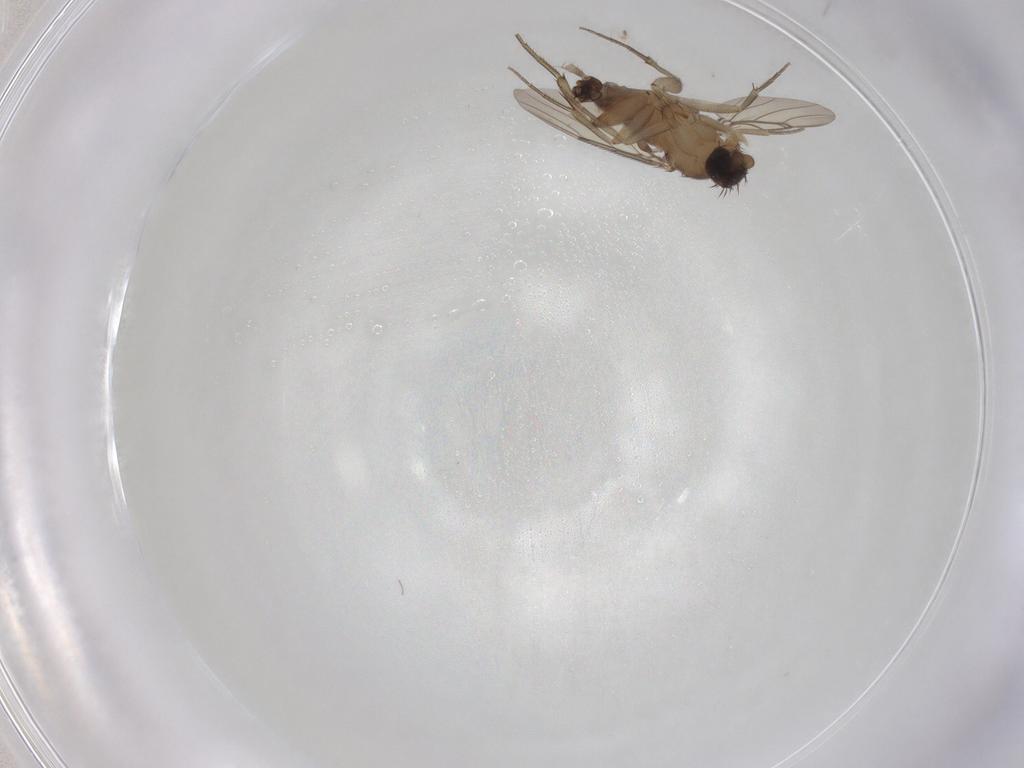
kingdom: Animalia
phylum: Arthropoda
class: Insecta
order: Diptera
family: Phoridae
